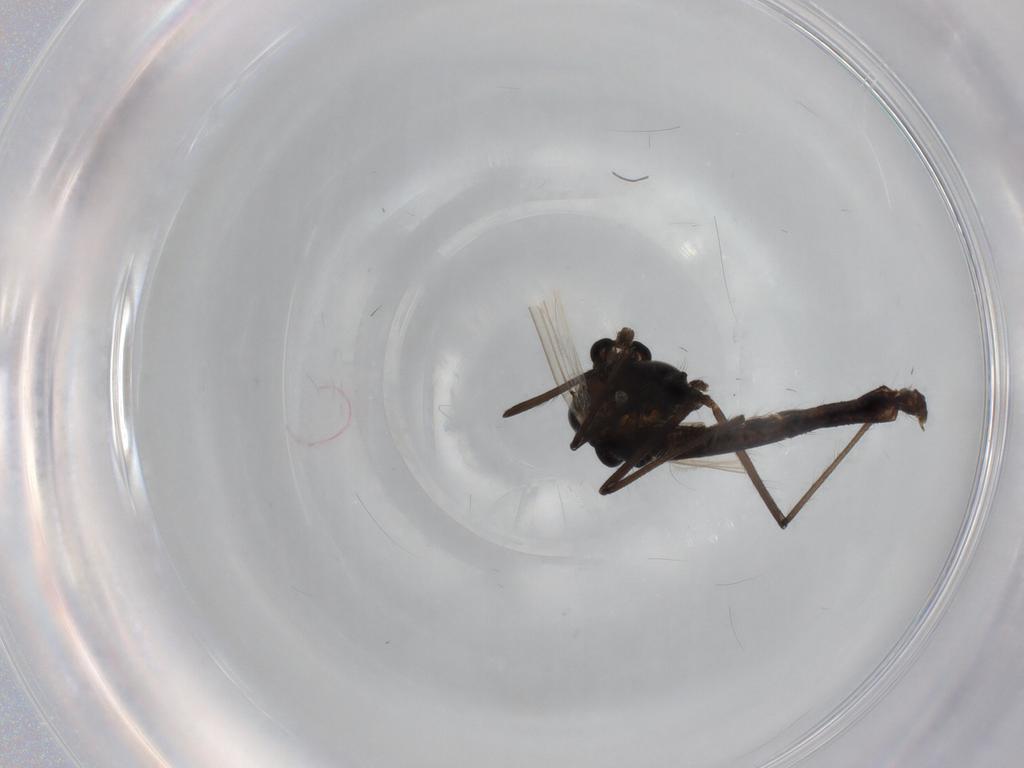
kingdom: Animalia
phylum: Arthropoda
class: Insecta
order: Diptera
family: Chironomidae
